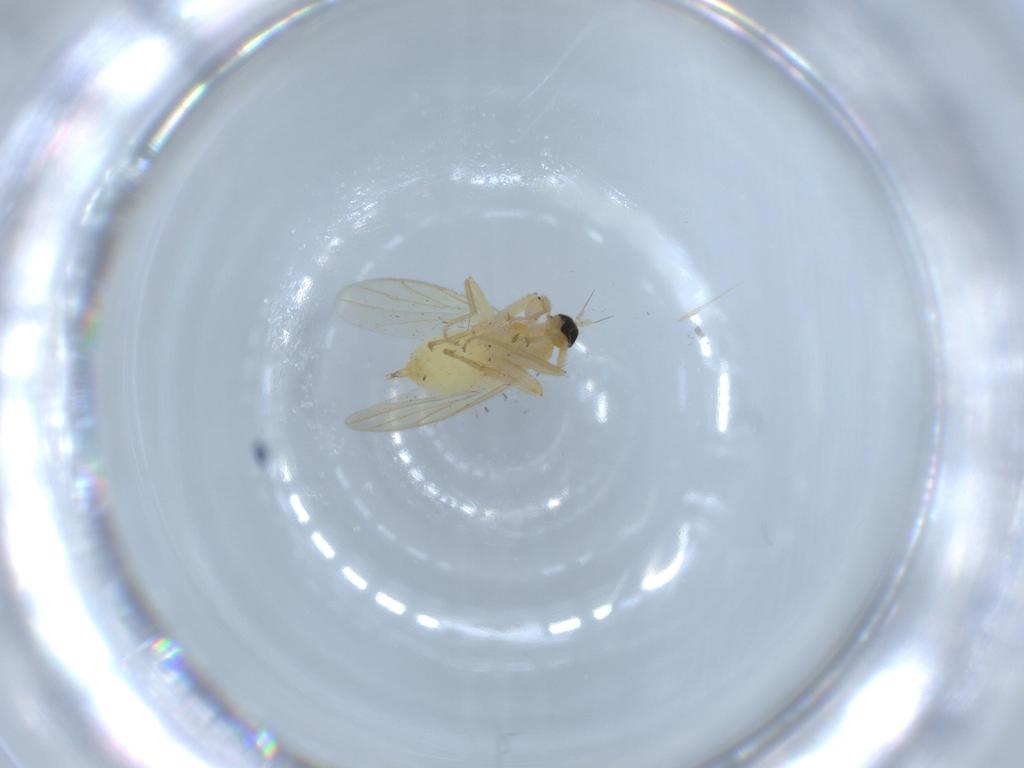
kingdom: Animalia
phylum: Arthropoda
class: Insecta
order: Diptera
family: Hybotidae
